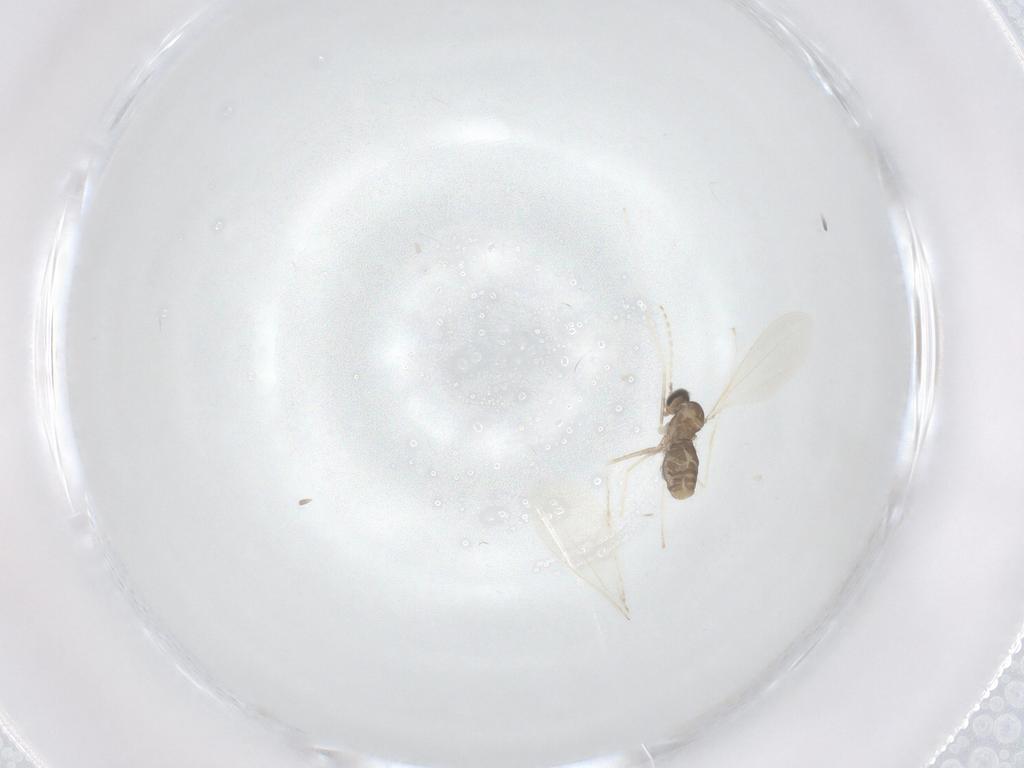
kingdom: Animalia
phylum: Arthropoda
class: Insecta
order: Diptera
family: Cecidomyiidae
